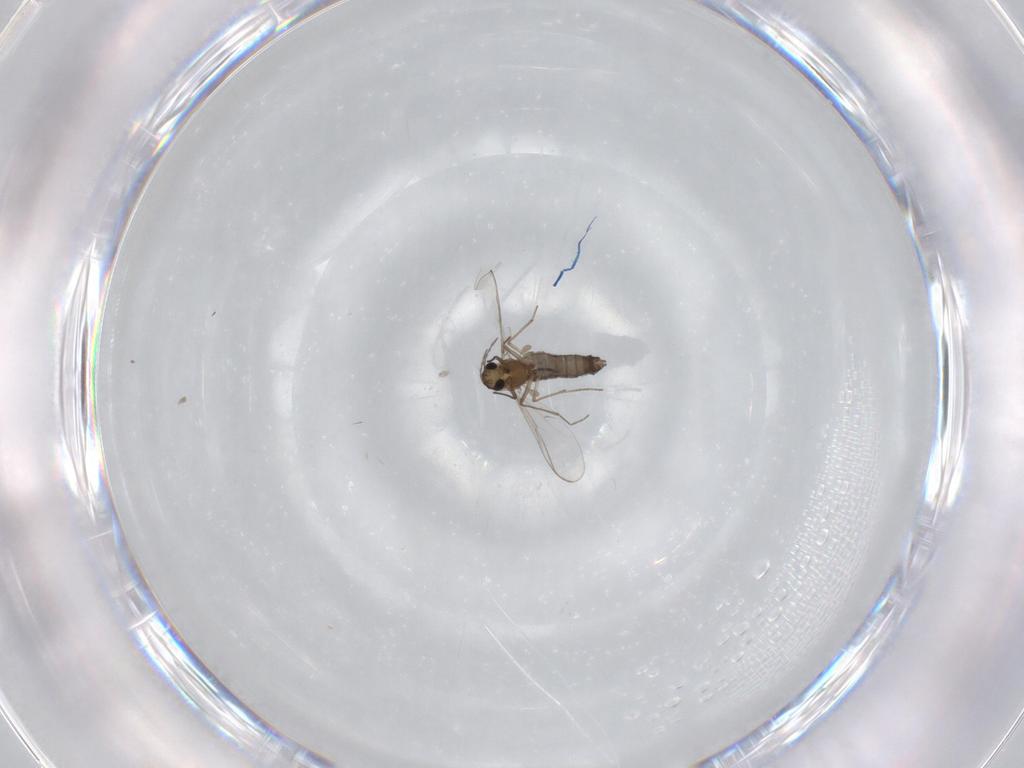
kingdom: Animalia
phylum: Arthropoda
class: Insecta
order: Diptera
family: Chironomidae
